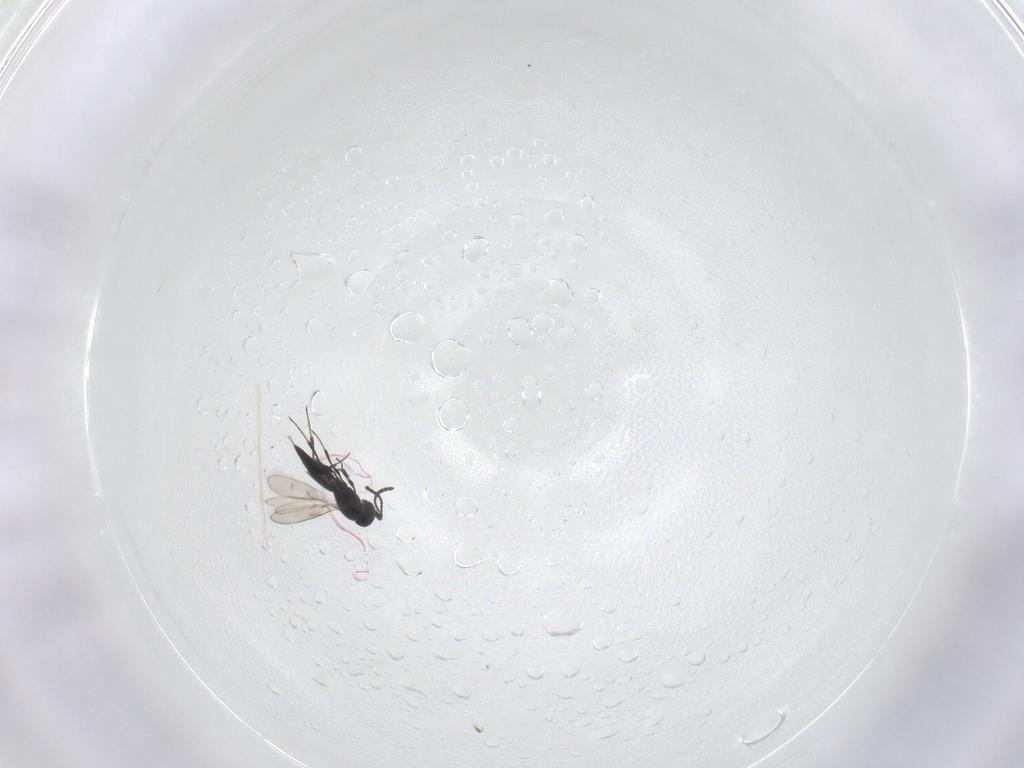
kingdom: Animalia
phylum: Arthropoda
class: Insecta
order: Hymenoptera
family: Scelionidae
